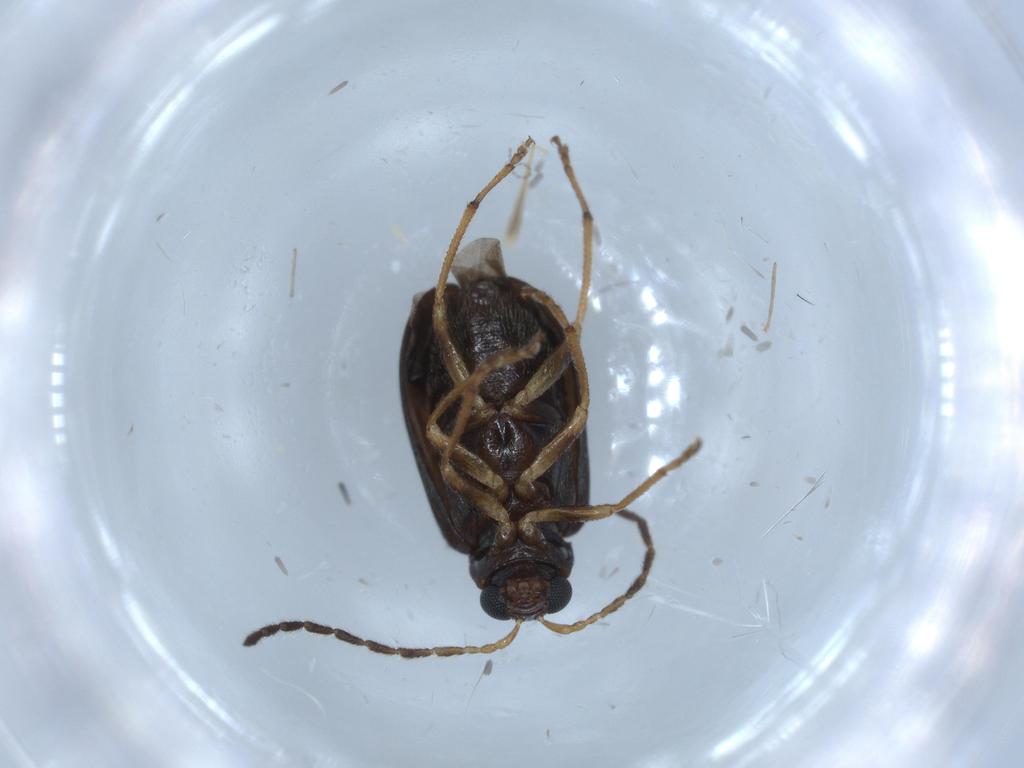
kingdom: Animalia
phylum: Arthropoda
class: Insecta
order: Coleoptera
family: Chrysomelidae
